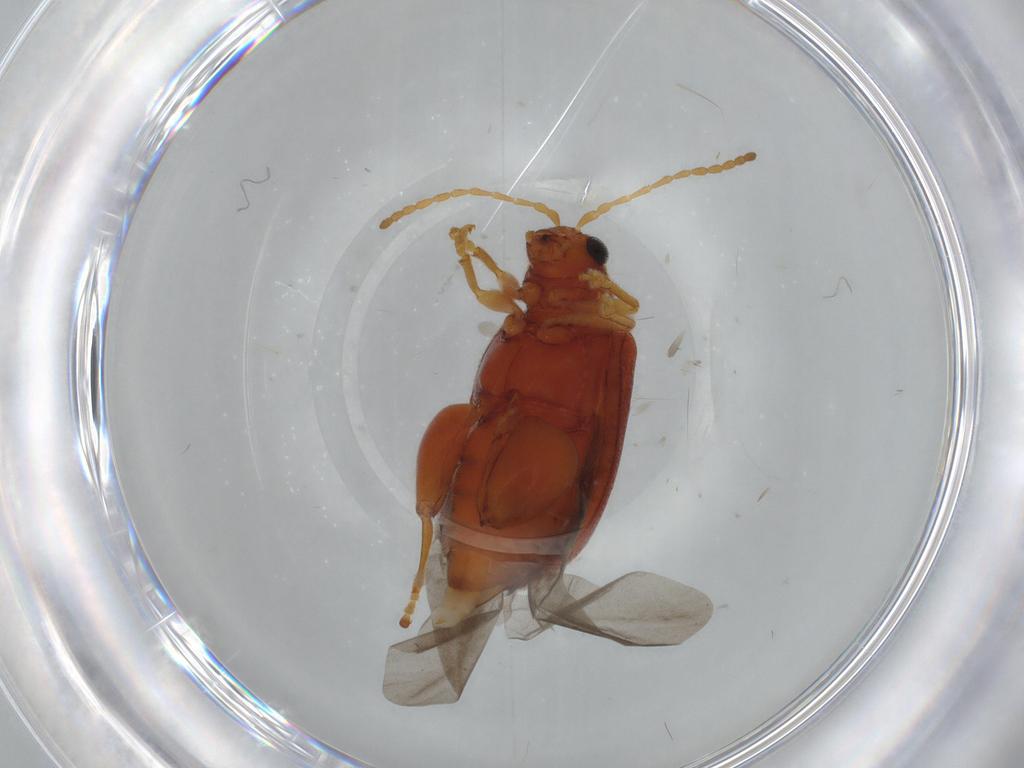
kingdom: Animalia
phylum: Arthropoda
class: Insecta
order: Coleoptera
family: Chrysomelidae
